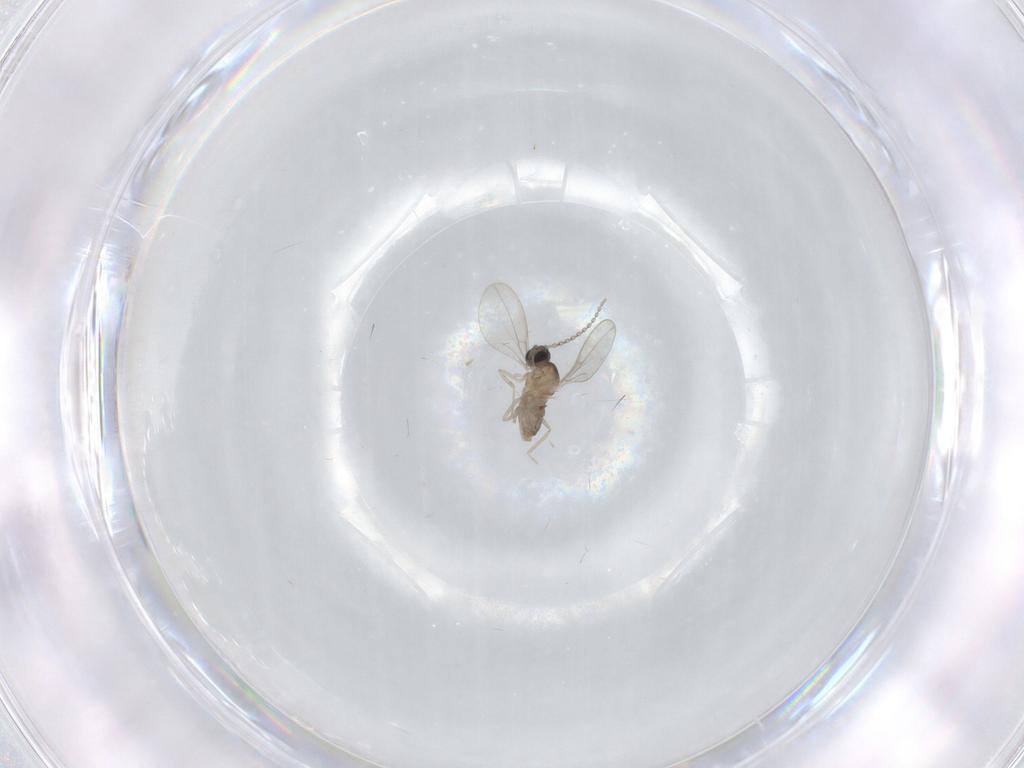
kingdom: Animalia
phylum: Arthropoda
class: Insecta
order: Diptera
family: Cecidomyiidae
